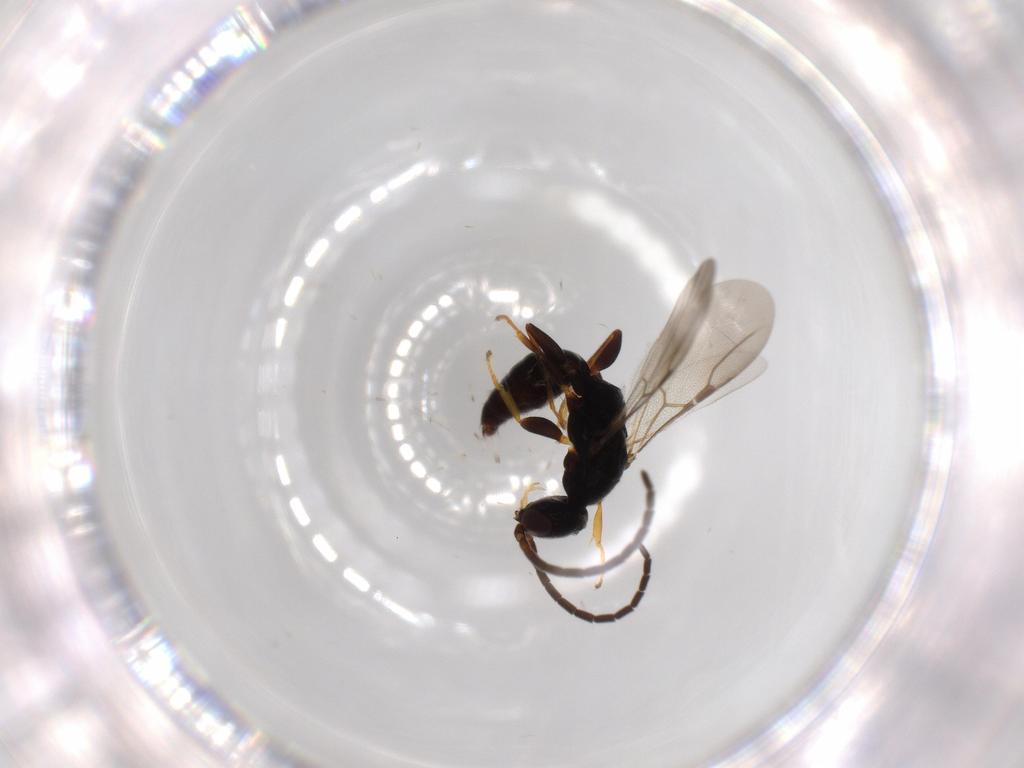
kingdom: Animalia
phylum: Arthropoda
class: Insecta
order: Hymenoptera
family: Bethylidae
